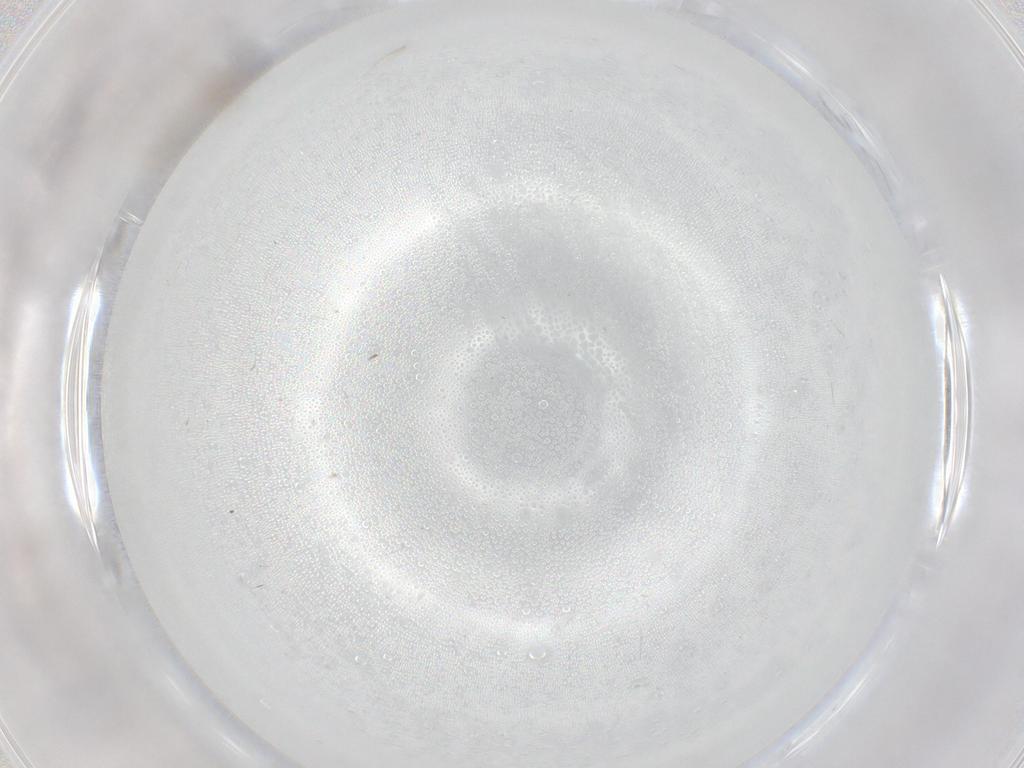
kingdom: Animalia
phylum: Arthropoda
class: Insecta
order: Diptera
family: Cecidomyiidae
